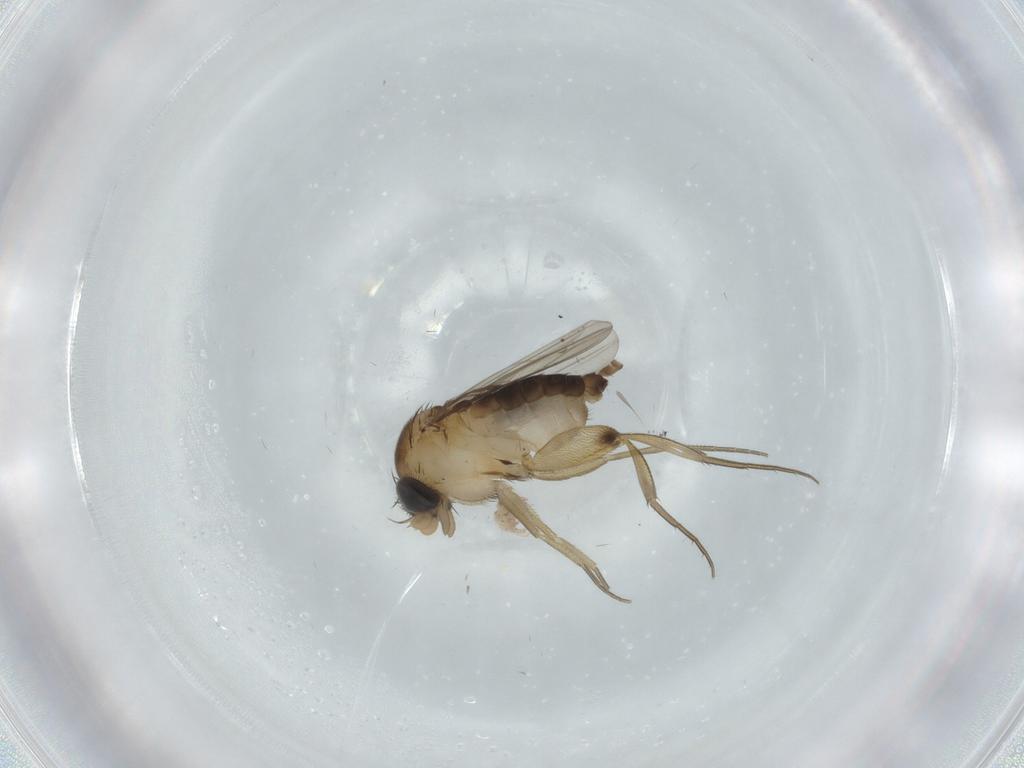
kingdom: Animalia
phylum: Arthropoda
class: Insecta
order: Diptera
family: Phoridae
